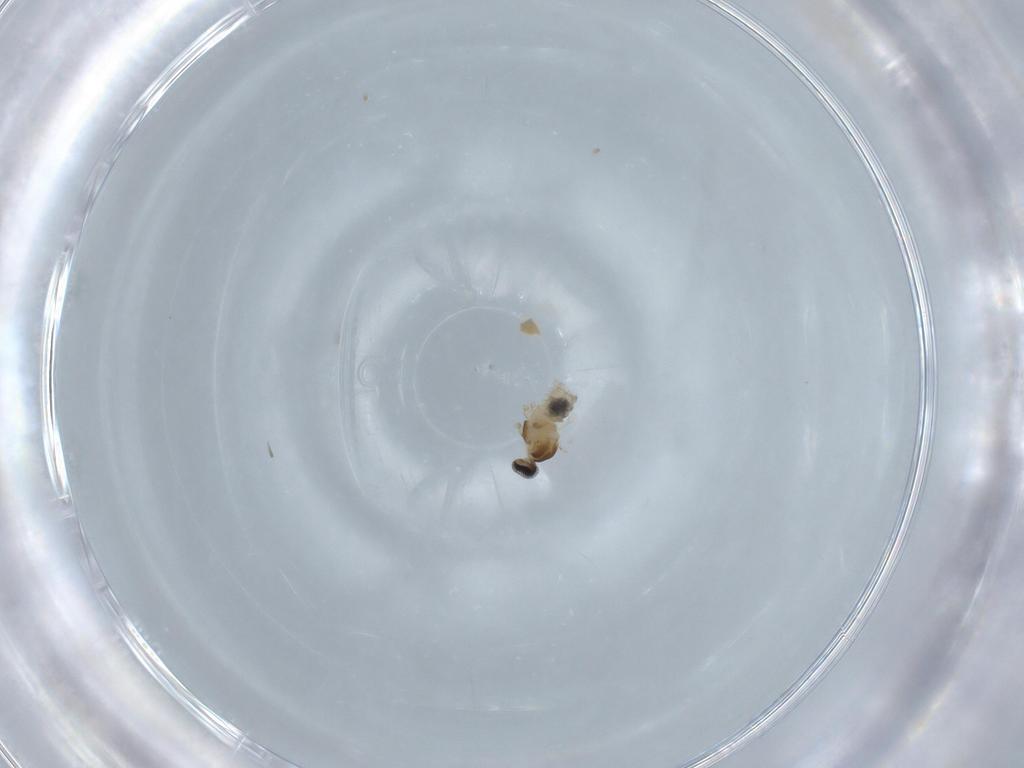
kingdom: Animalia
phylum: Arthropoda
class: Insecta
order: Diptera
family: Cecidomyiidae
